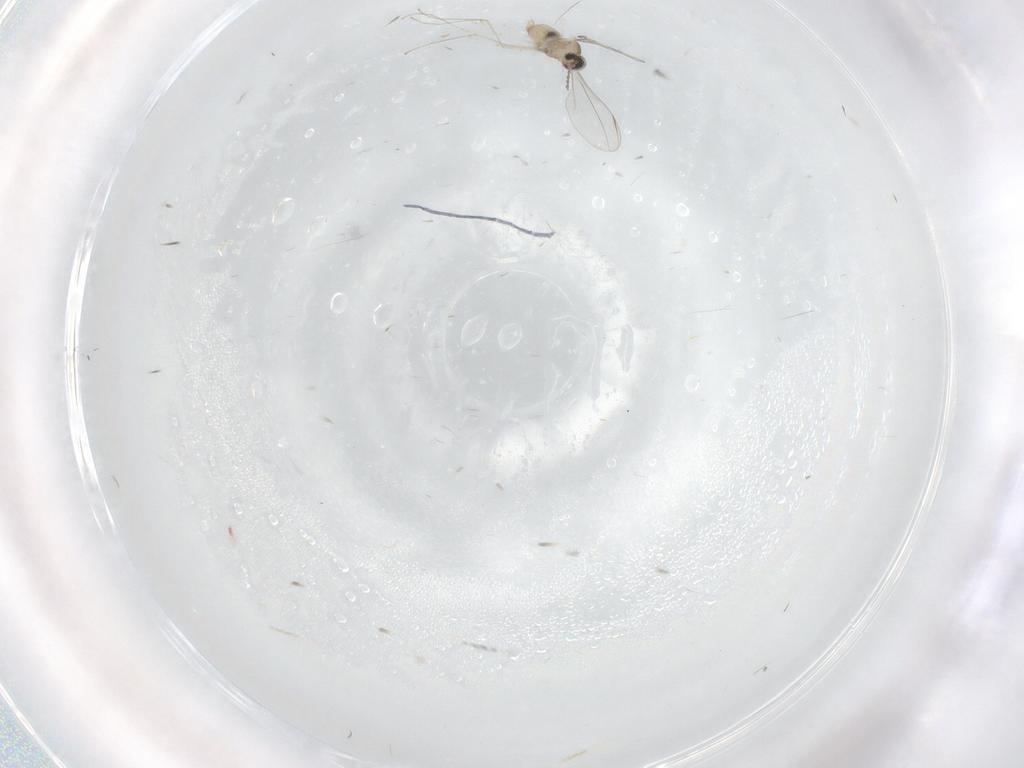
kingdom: Animalia
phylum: Arthropoda
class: Insecta
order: Diptera
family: Cecidomyiidae
